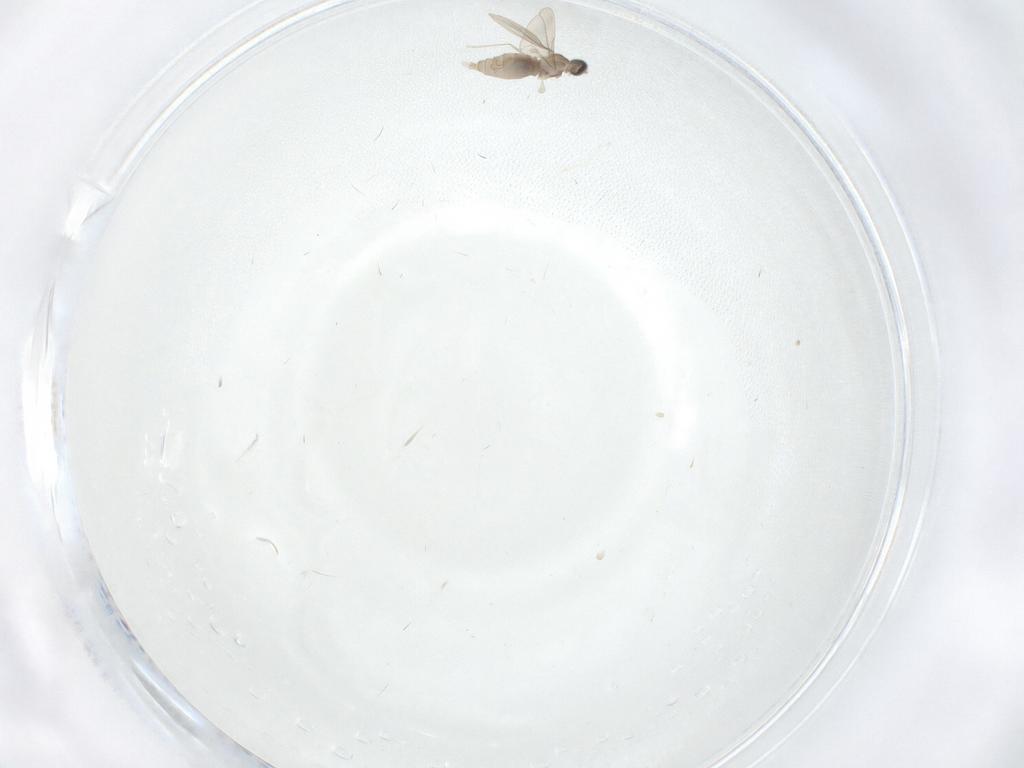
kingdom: Animalia
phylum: Arthropoda
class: Insecta
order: Diptera
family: Cecidomyiidae
